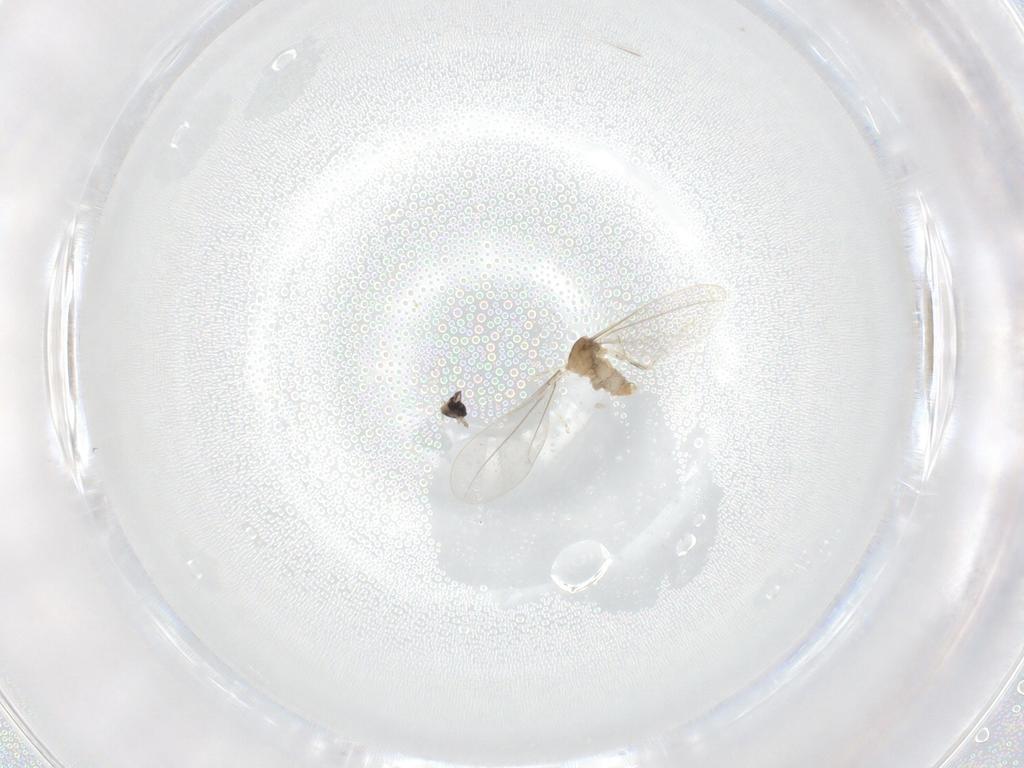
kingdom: Animalia
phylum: Arthropoda
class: Insecta
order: Diptera
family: Cecidomyiidae
